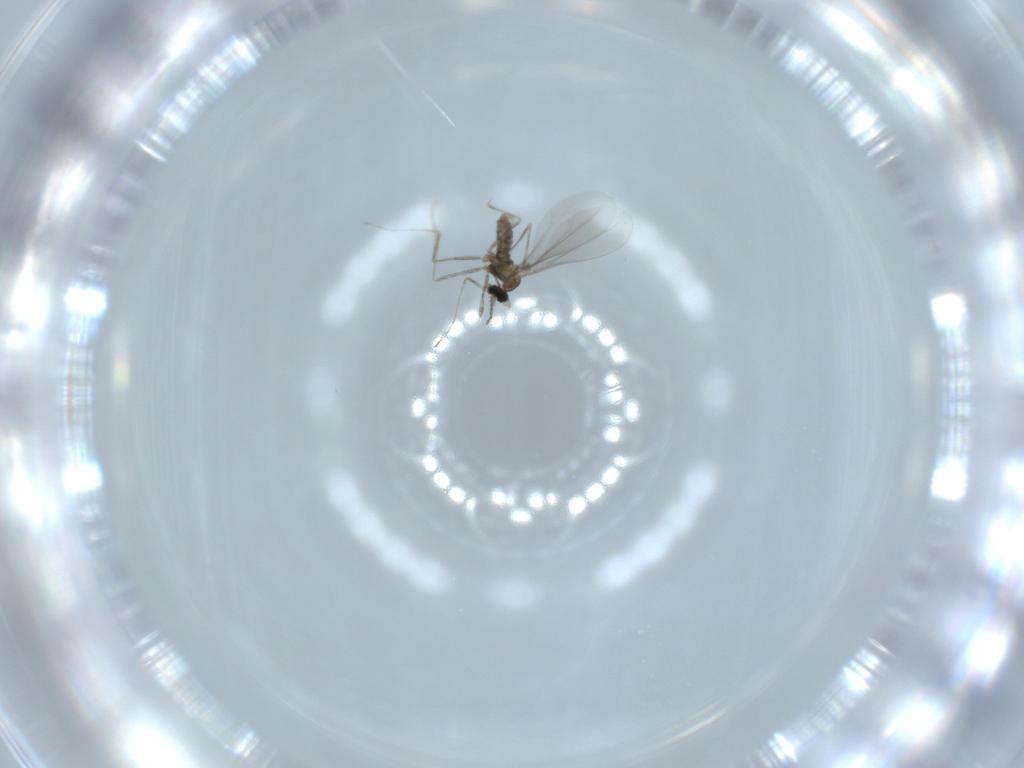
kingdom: Animalia
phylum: Arthropoda
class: Insecta
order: Diptera
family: Cecidomyiidae
